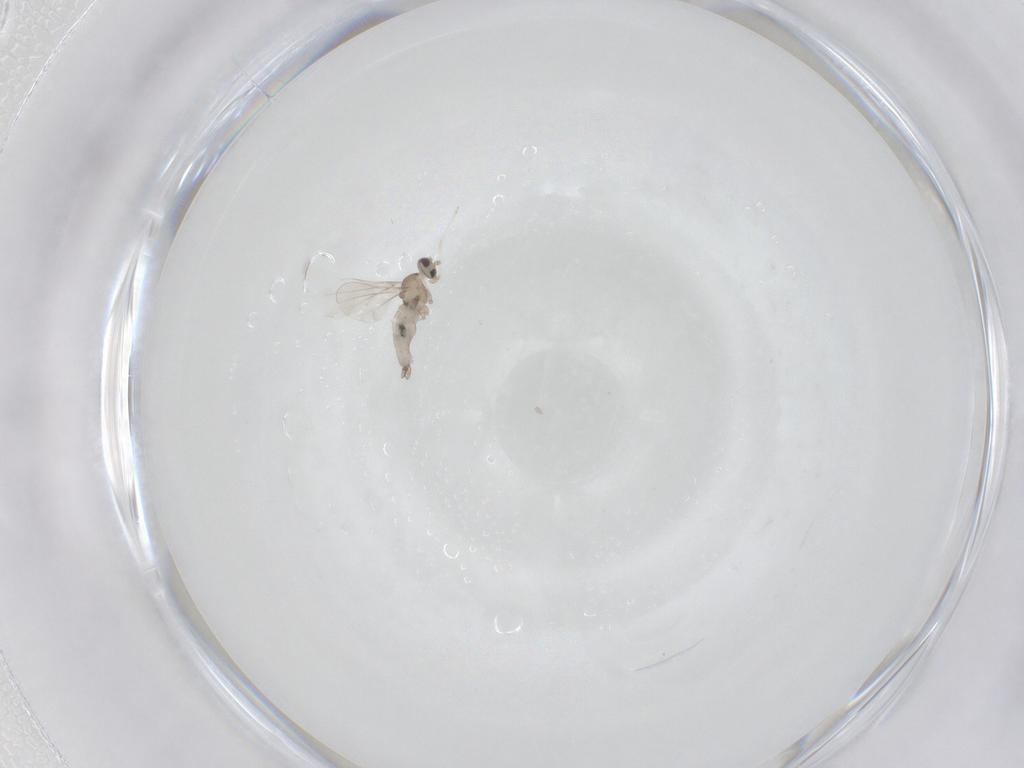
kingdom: Animalia
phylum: Arthropoda
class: Insecta
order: Diptera
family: Cecidomyiidae
